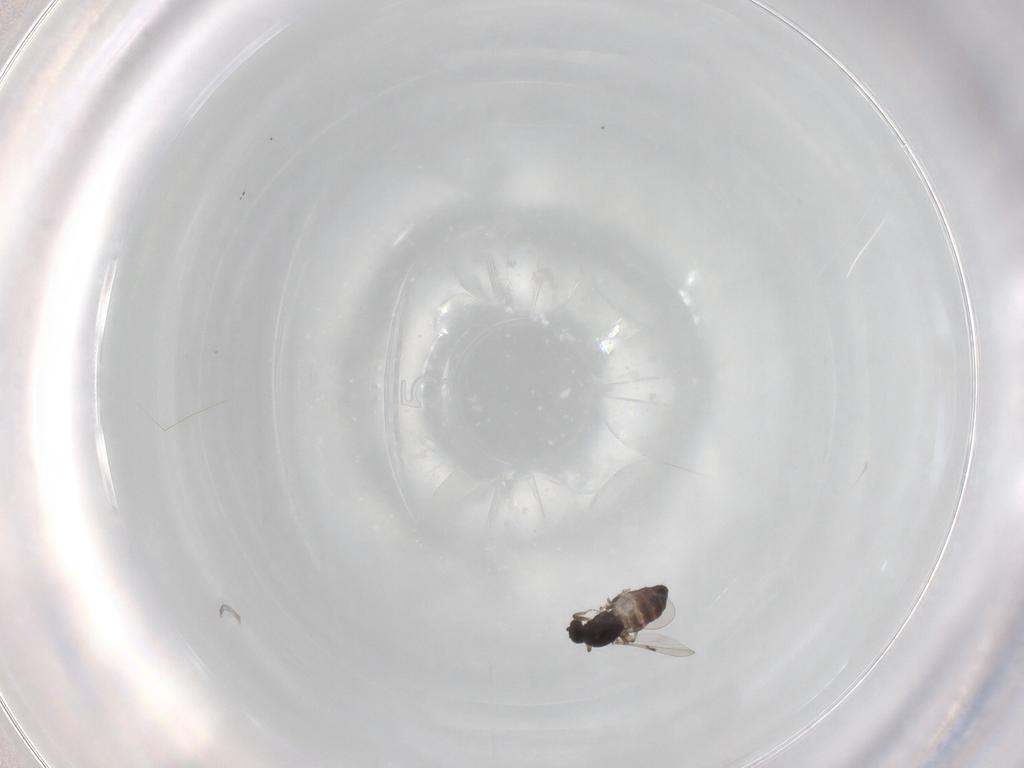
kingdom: Animalia
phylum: Arthropoda
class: Insecta
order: Diptera
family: Ceratopogonidae
